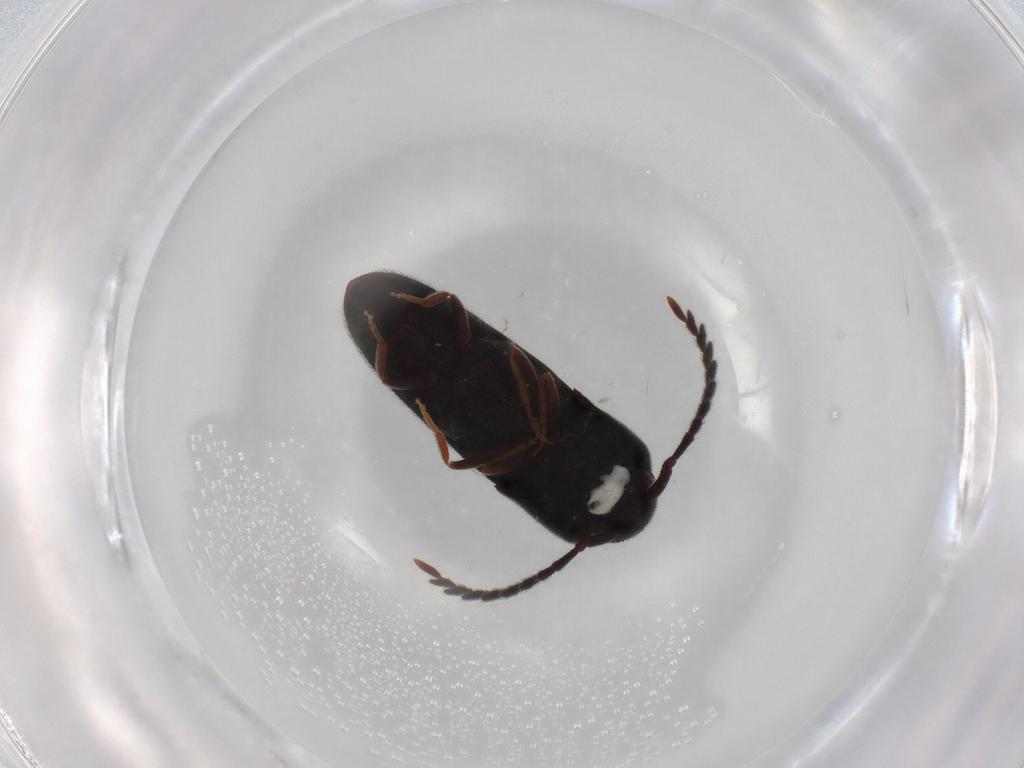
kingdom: Animalia
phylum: Arthropoda
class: Insecta
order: Coleoptera
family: Eucnemidae
